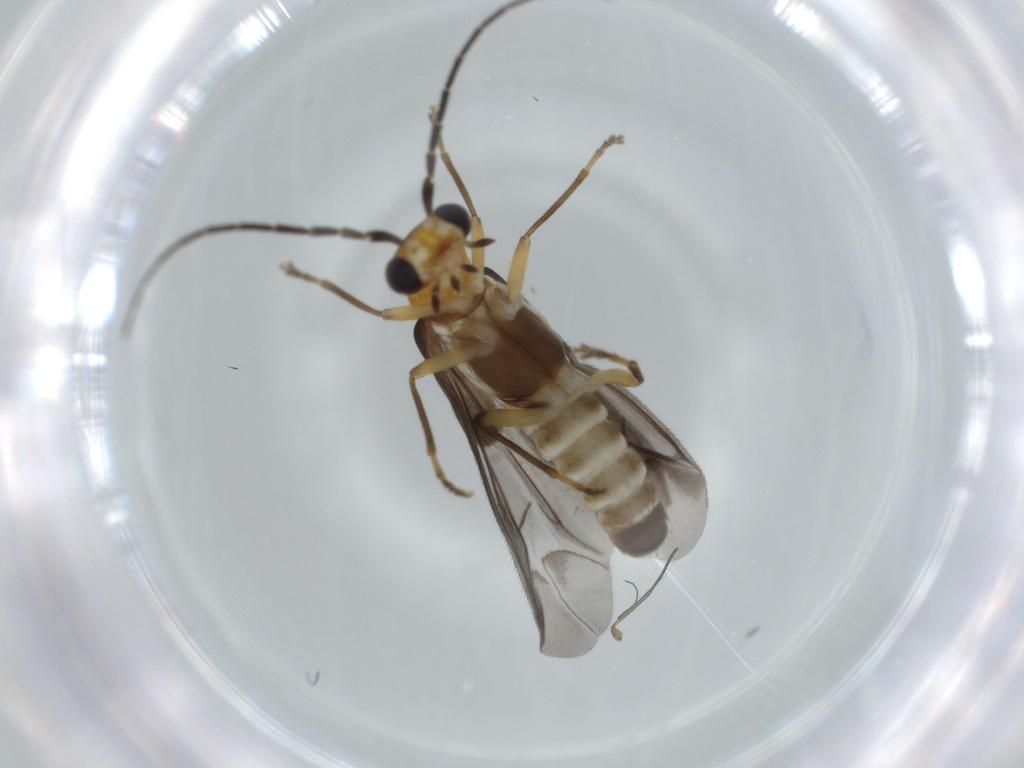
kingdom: Animalia
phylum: Arthropoda
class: Insecta
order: Coleoptera
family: Cantharidae
